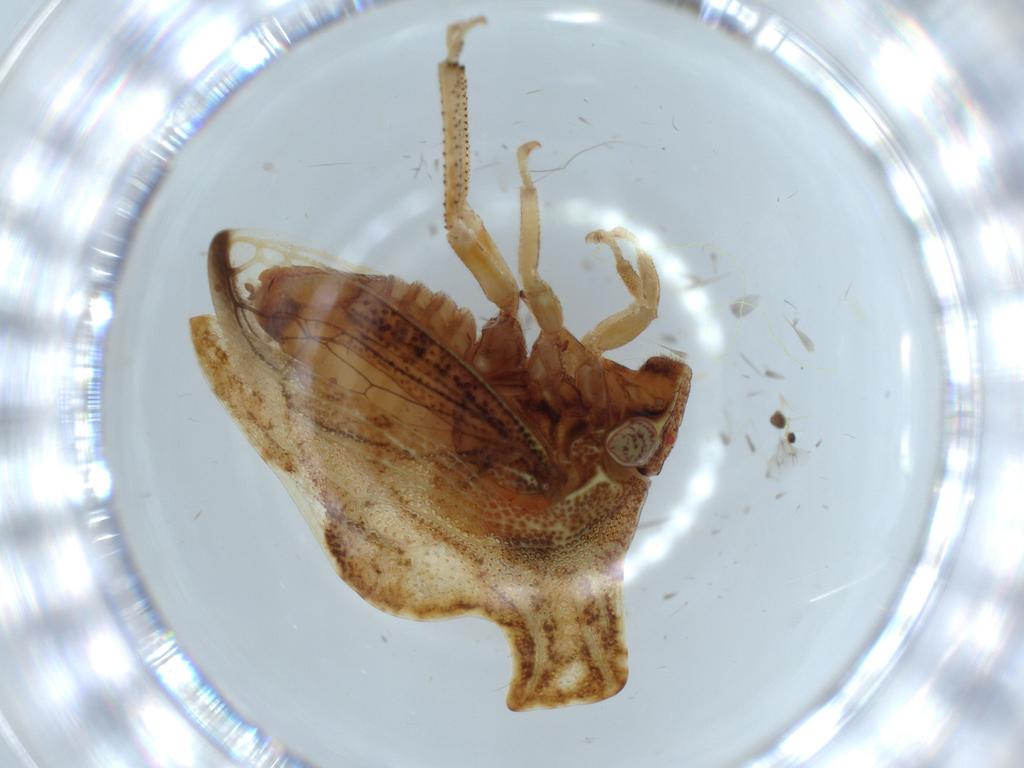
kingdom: Animalia
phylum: Arthropoda
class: Insecta
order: Hemiptera
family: Membracidae
